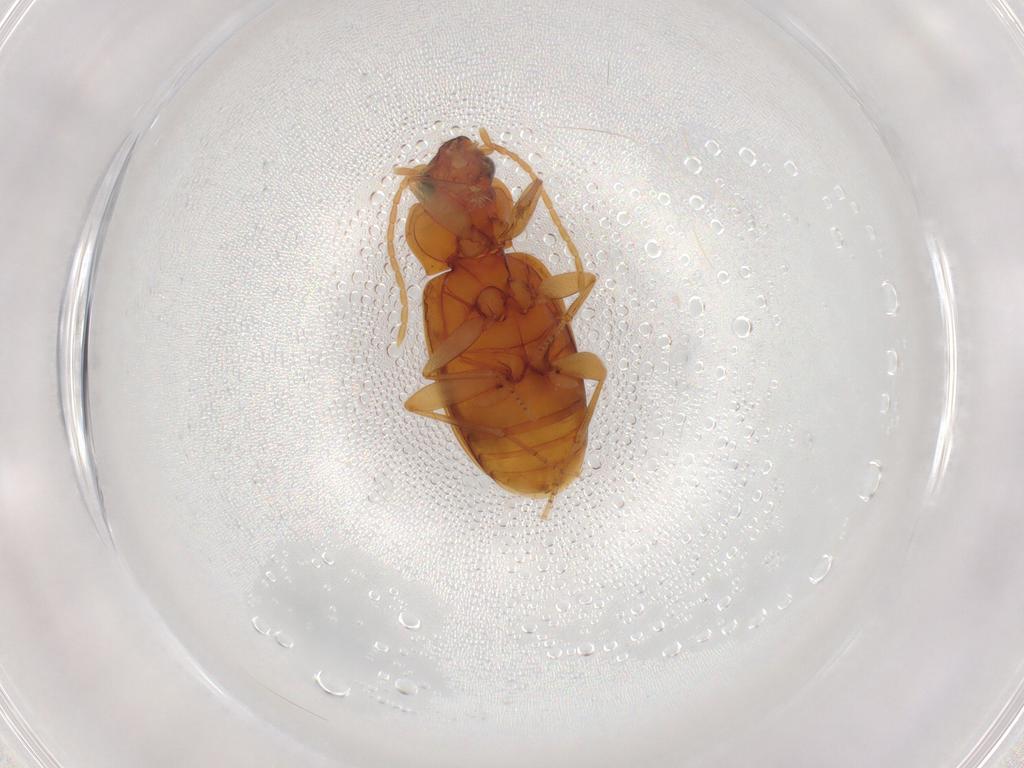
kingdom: Animalia
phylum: Arthropoda
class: Insecta
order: Coleoptera
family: Carabidae
